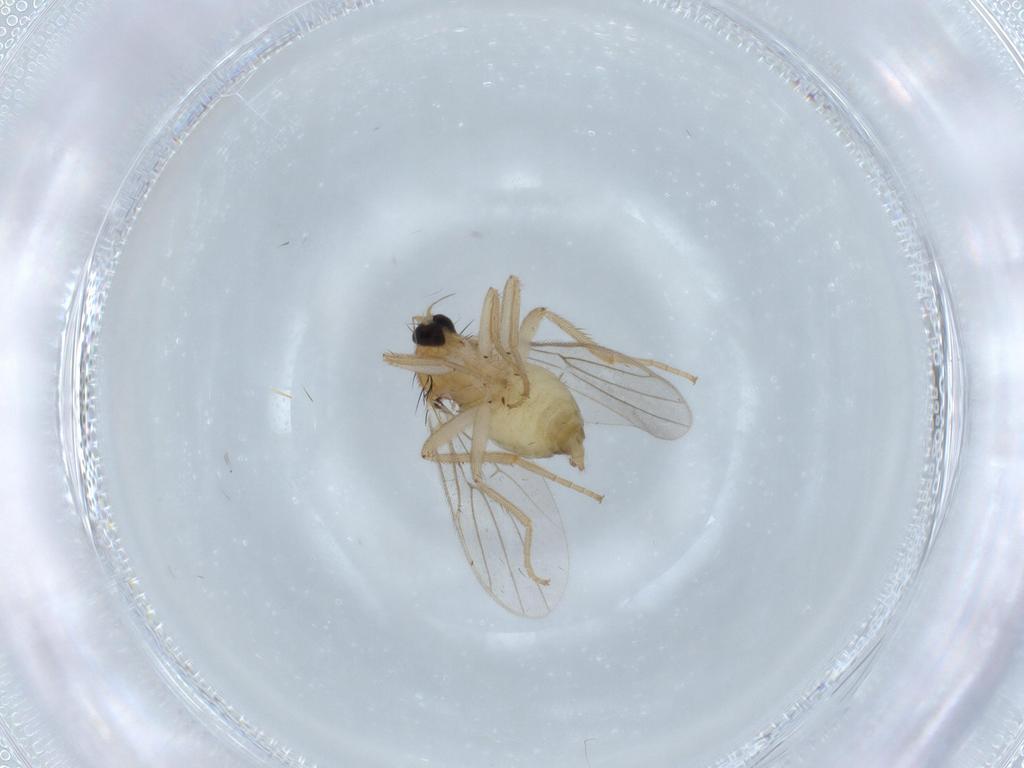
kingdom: Animalia
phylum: Arthropoda
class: Insecta
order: Diptera
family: Hybotidae
